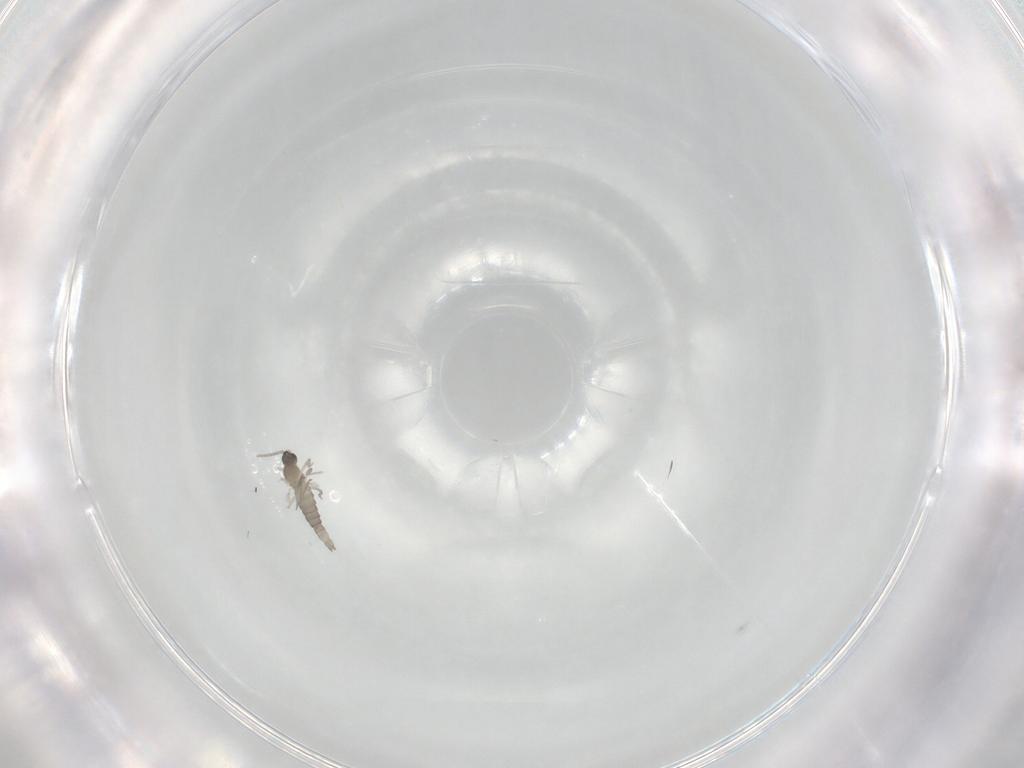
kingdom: Animalia
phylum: Arthropoda
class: Insecta
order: Diptera
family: Cecidomyiidae
